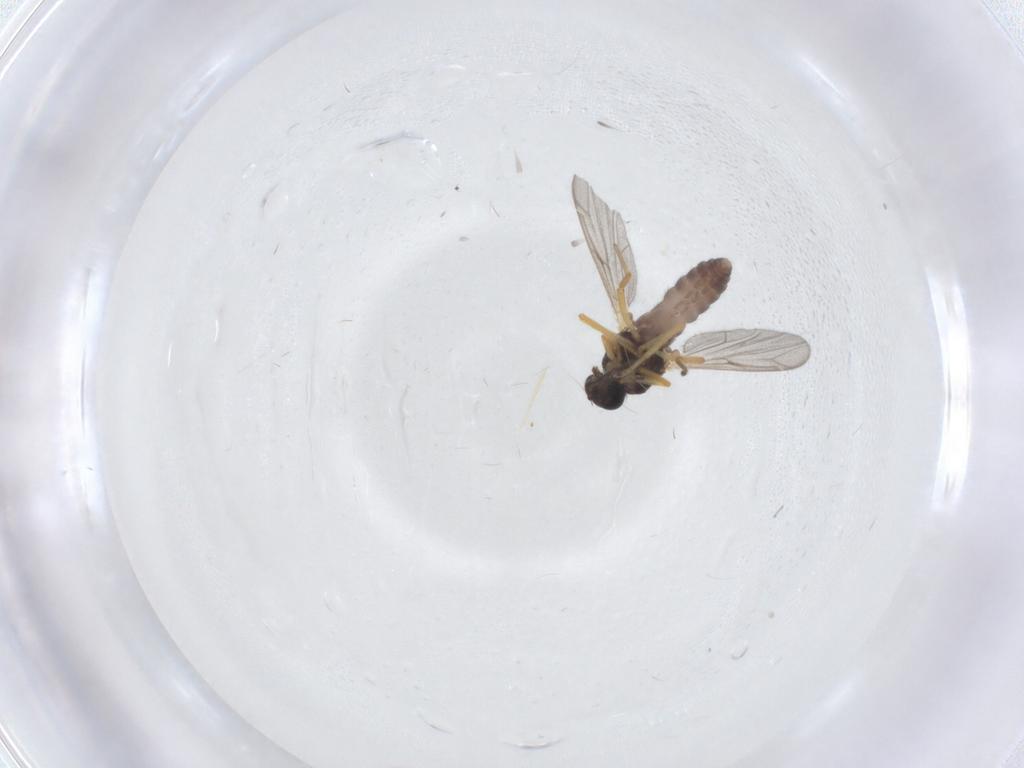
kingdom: Animalia
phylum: Arthropoda
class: Insecta
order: Diptera
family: Ceratopogonidae
